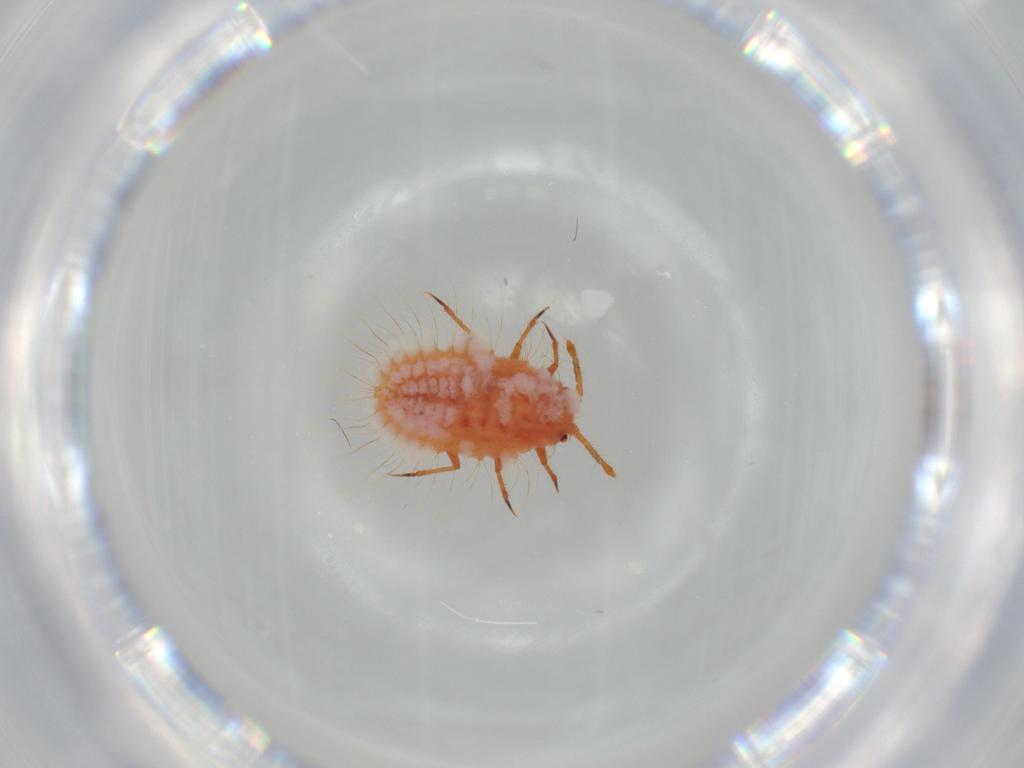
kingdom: Animalia
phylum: Arthropoda
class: Insecta
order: Hemiptera
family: Coccoidea_incertae_sedis
